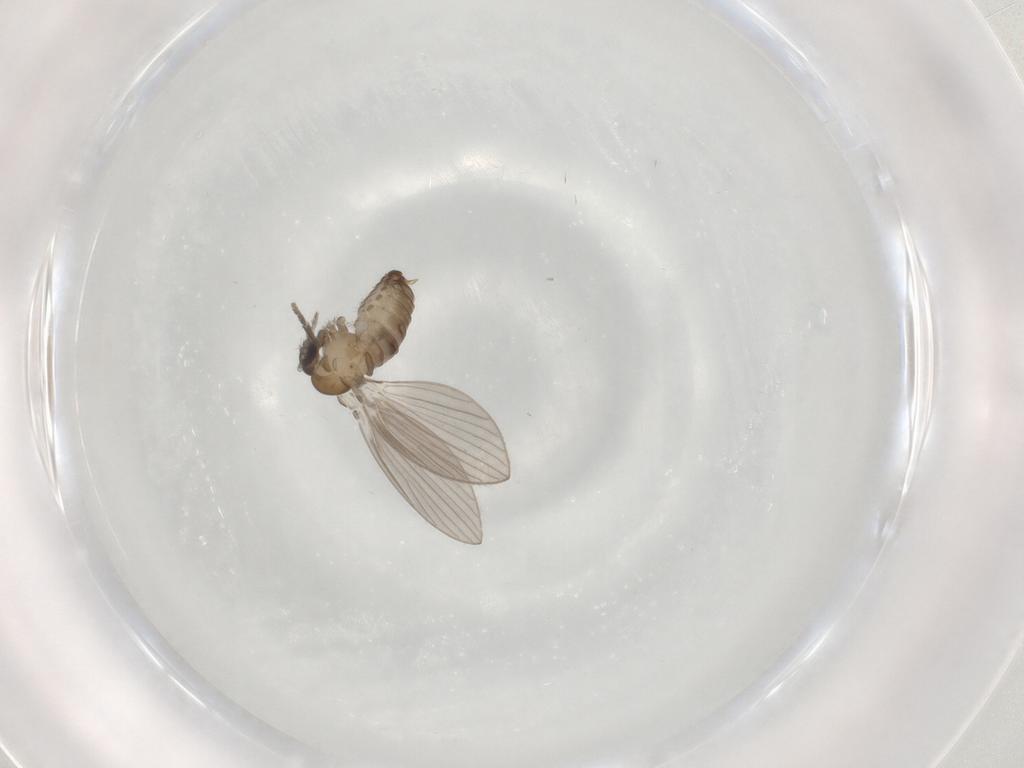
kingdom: Animalia
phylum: Arthropoda
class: Insecta
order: Diptera
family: Psychodidae
